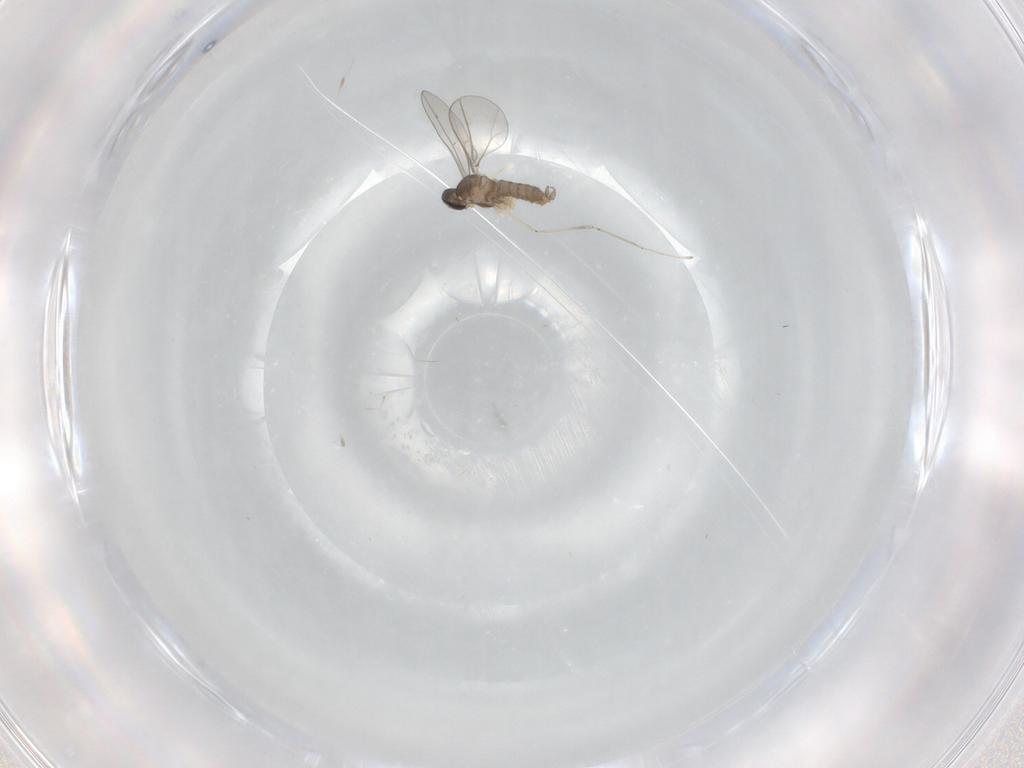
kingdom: Animalia
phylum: Arthropoda
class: Insecta
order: Diptera
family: Cecidomyiidae
